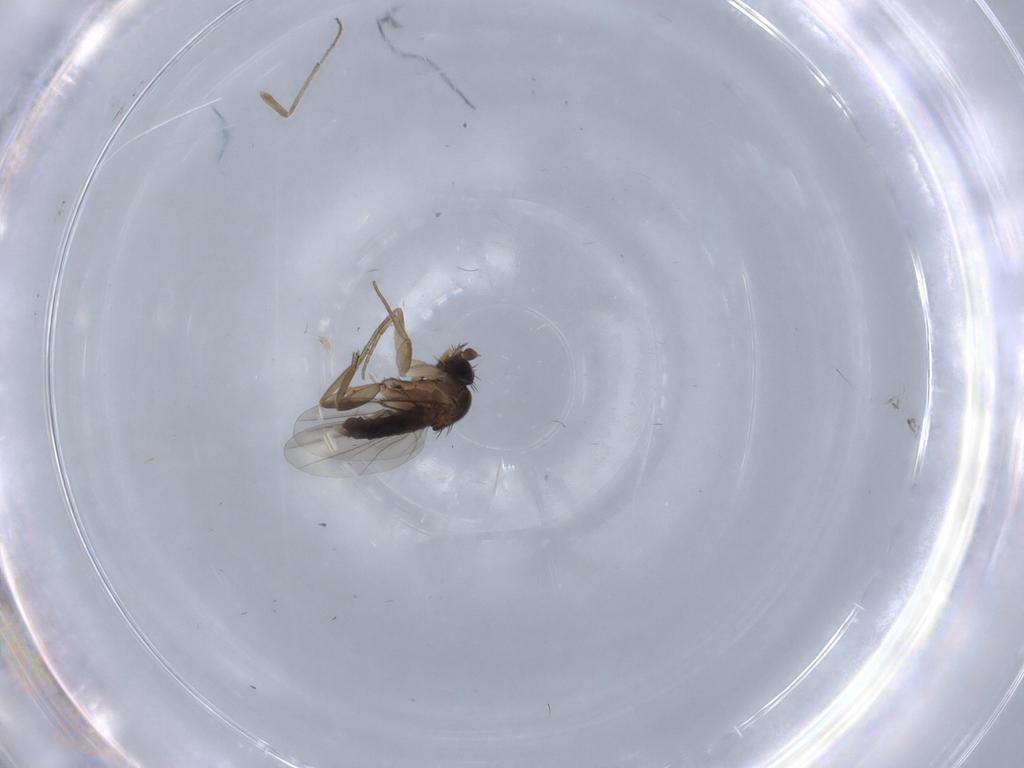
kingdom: Animalia
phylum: Arthropoda
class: Insecta
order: Diptera
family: Phoridae
